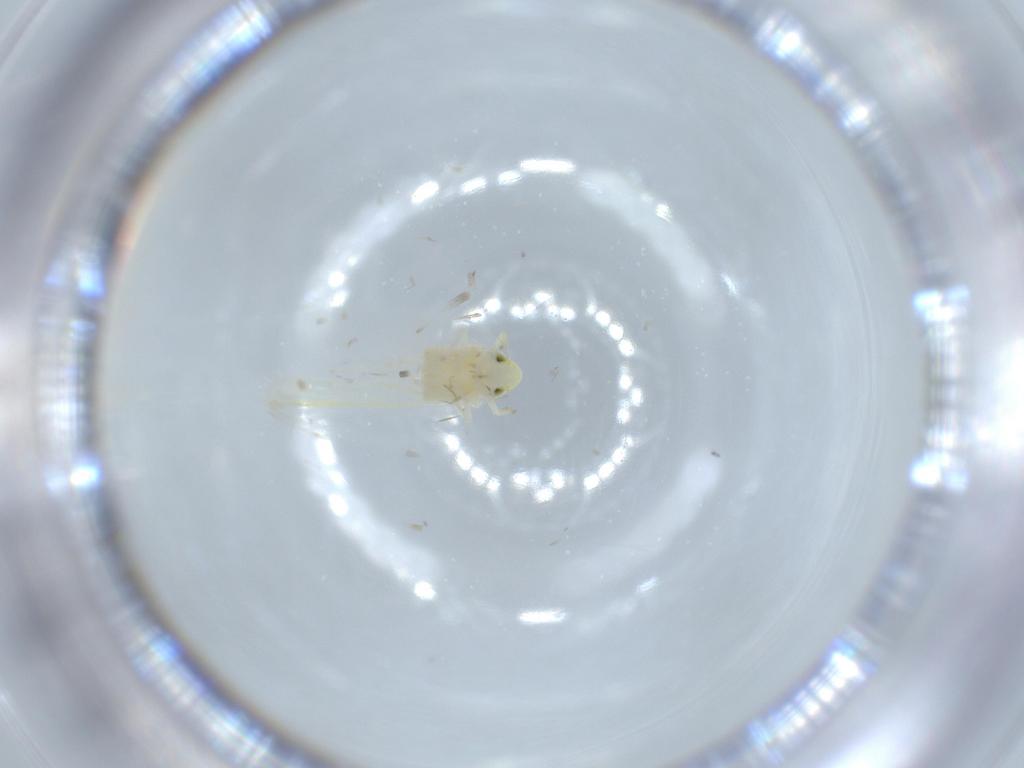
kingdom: Animalia
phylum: Arthropoda
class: Insecta
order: Hemiptera
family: Cicadellidae
